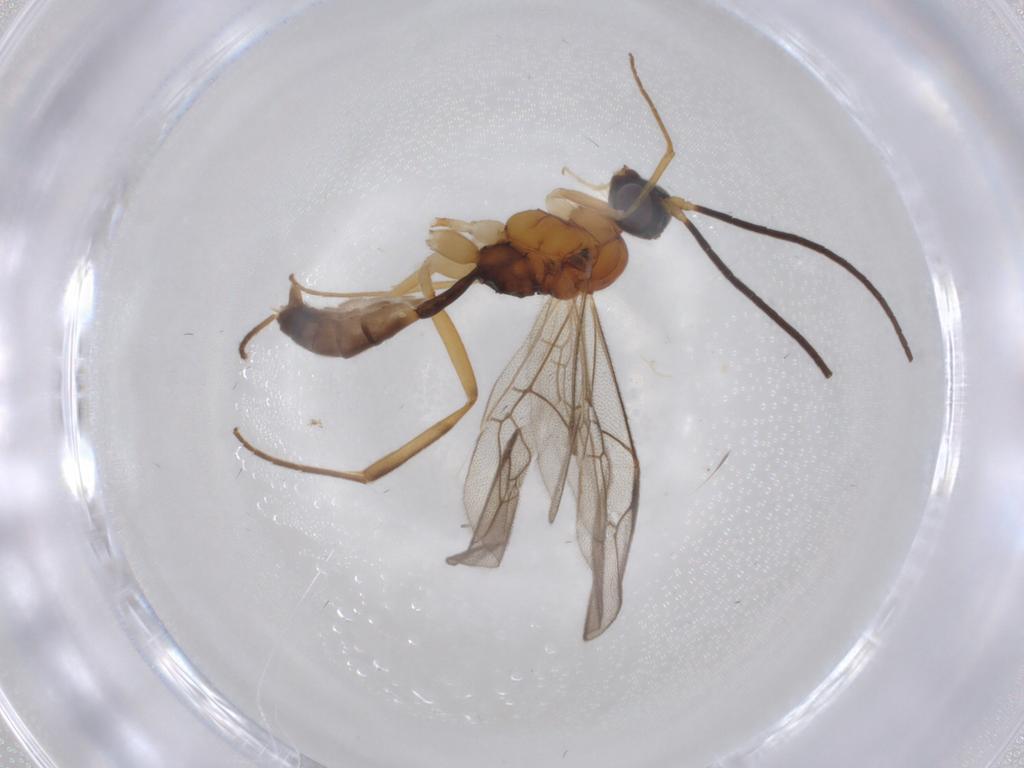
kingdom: Animalia
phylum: Arthropoda
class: Insecta
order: Hymenoptera
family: Ichneumonidae
